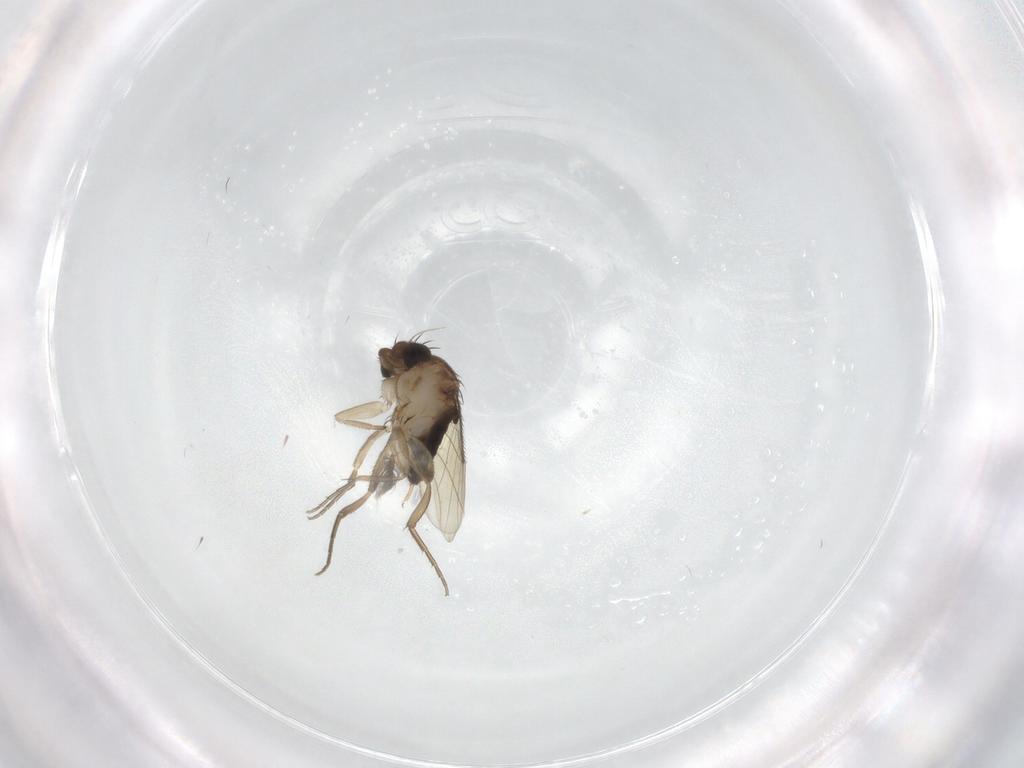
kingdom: Animalia
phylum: Arthropoda
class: Insecta
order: Diptera
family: Phoridae
